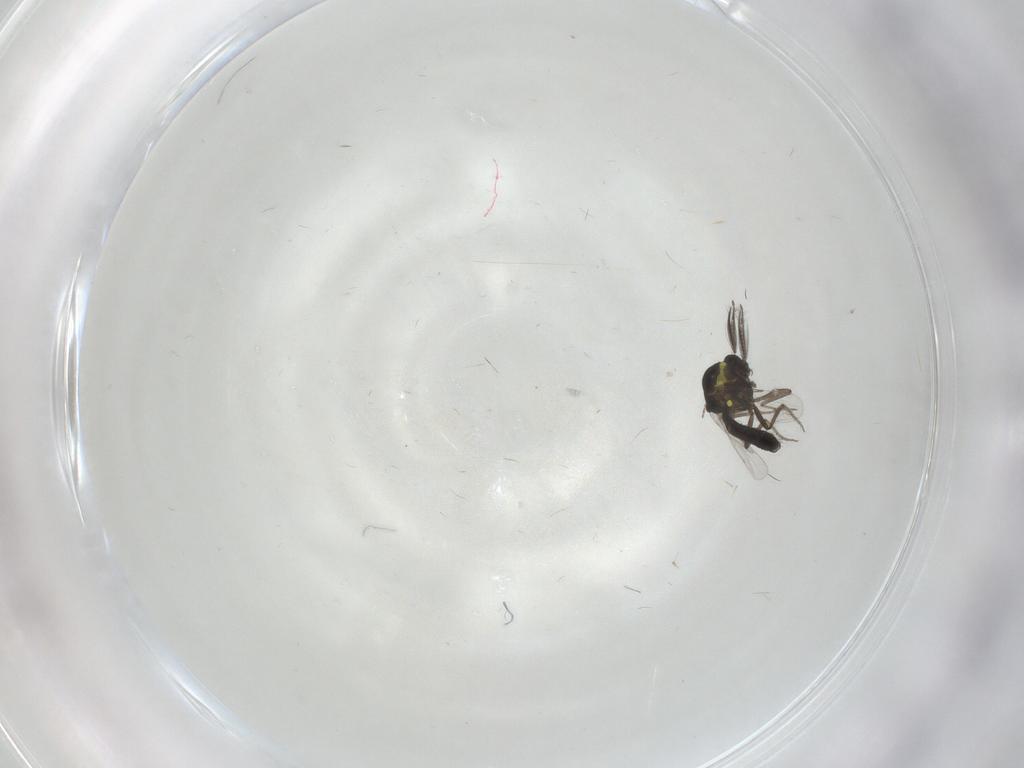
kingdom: Animalia
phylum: Arthropoda
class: Insecta
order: Diptera
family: Ceratopogonidae
